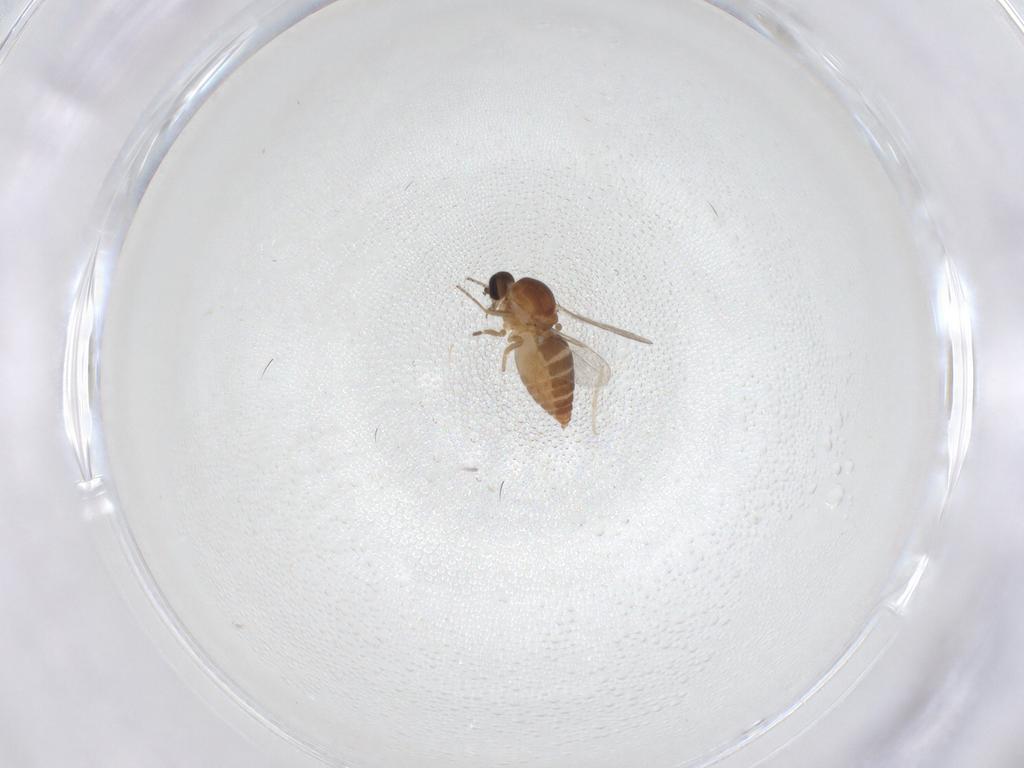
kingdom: Animalia
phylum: Arthropoda
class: Insecta
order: Diptera
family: Ceratopogonidae
